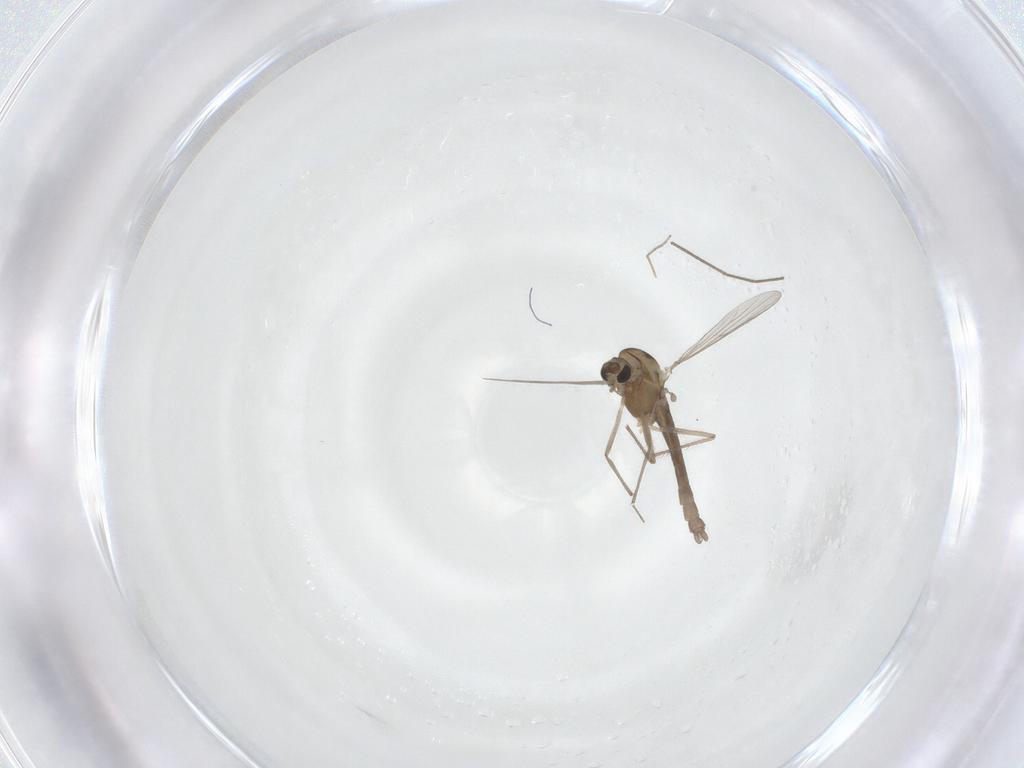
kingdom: Animalia
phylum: Arthropoda
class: Insecta
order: Diptera
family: Chironomidae
